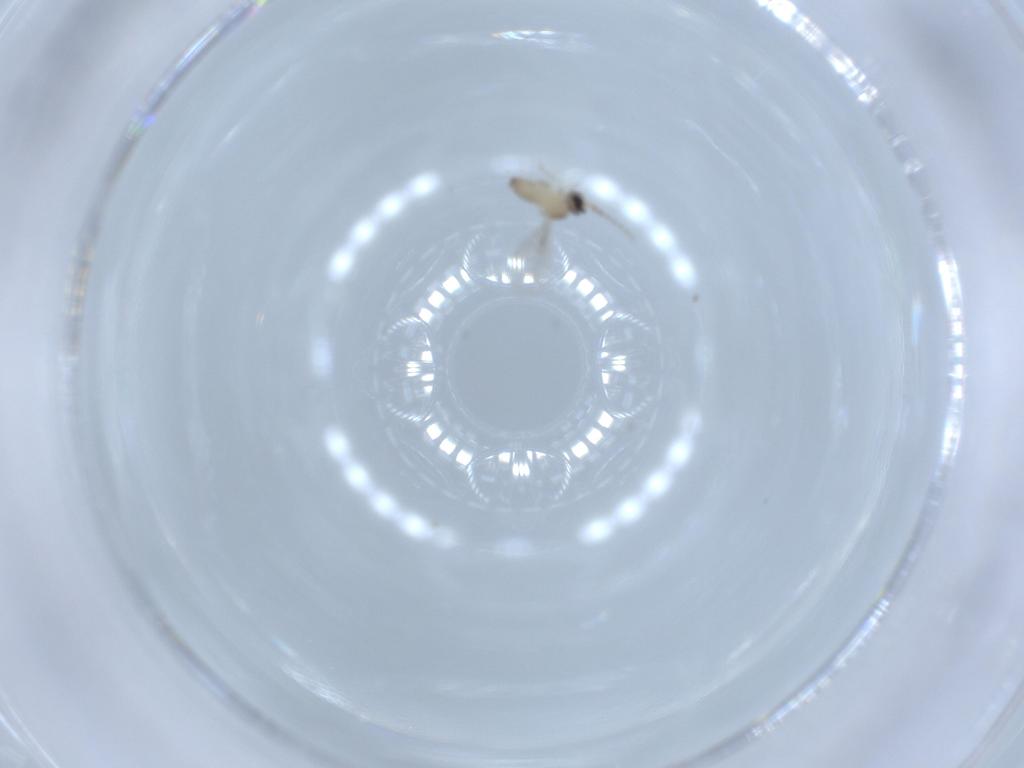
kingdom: Animalia
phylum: Arthropoda
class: Insecta
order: Diptera
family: Cecidomyiidae
